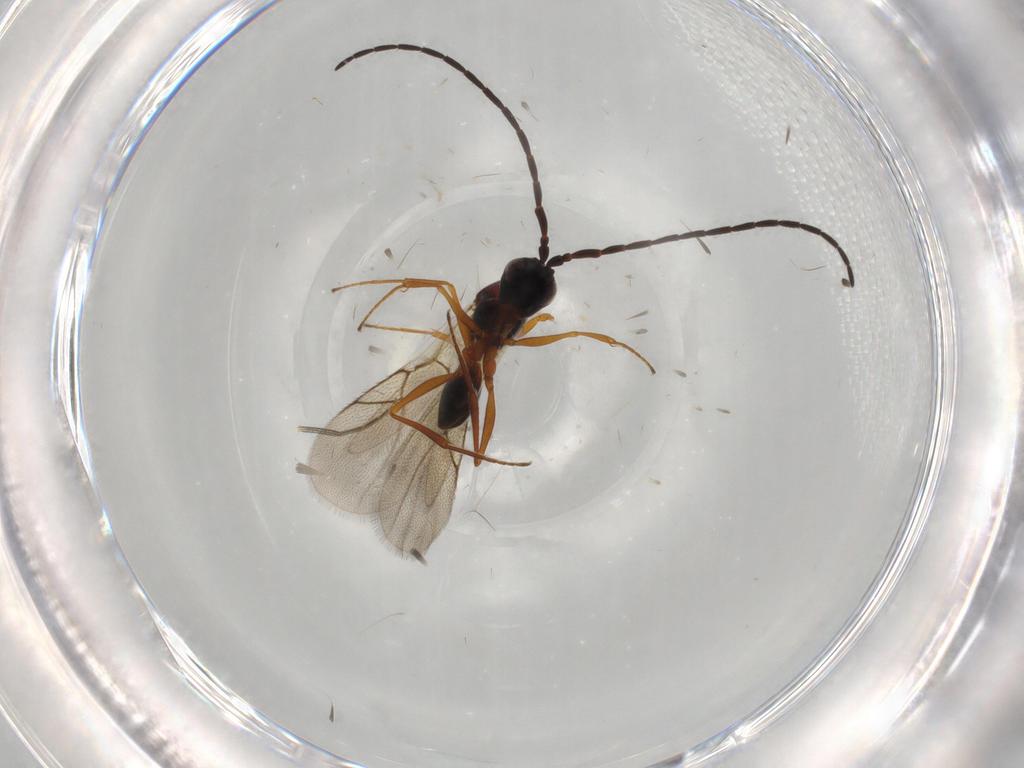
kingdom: Animalia
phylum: Arthropoda
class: Insecta
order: Hymenoptera
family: Figitidae
